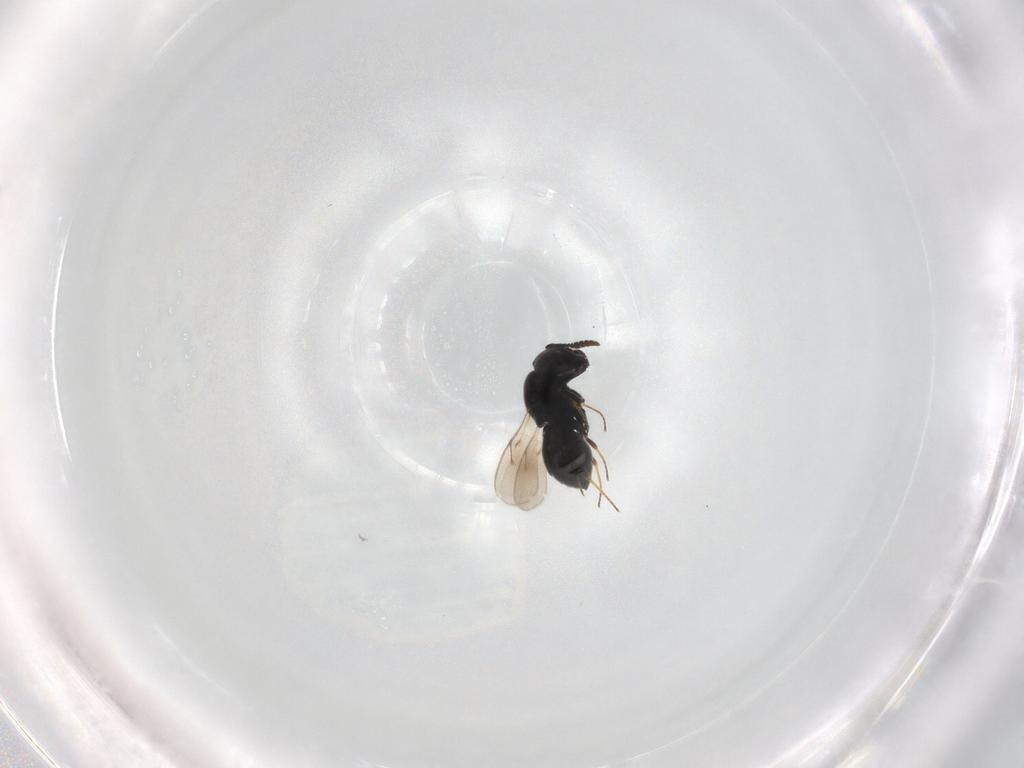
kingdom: Animalia
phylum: Arthropoda
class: Insecta
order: Hymenoptera
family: Scelionidae
